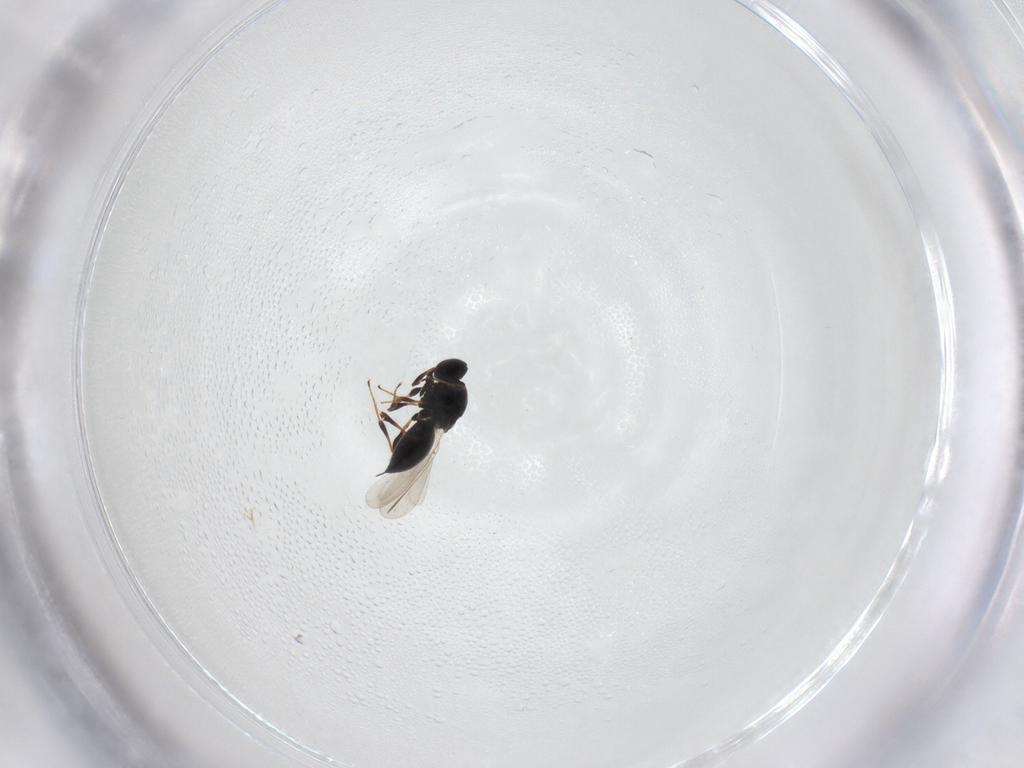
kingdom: Animalia
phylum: Arthropoda
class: Insecta
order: Hymenoptera
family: Platygastridae
